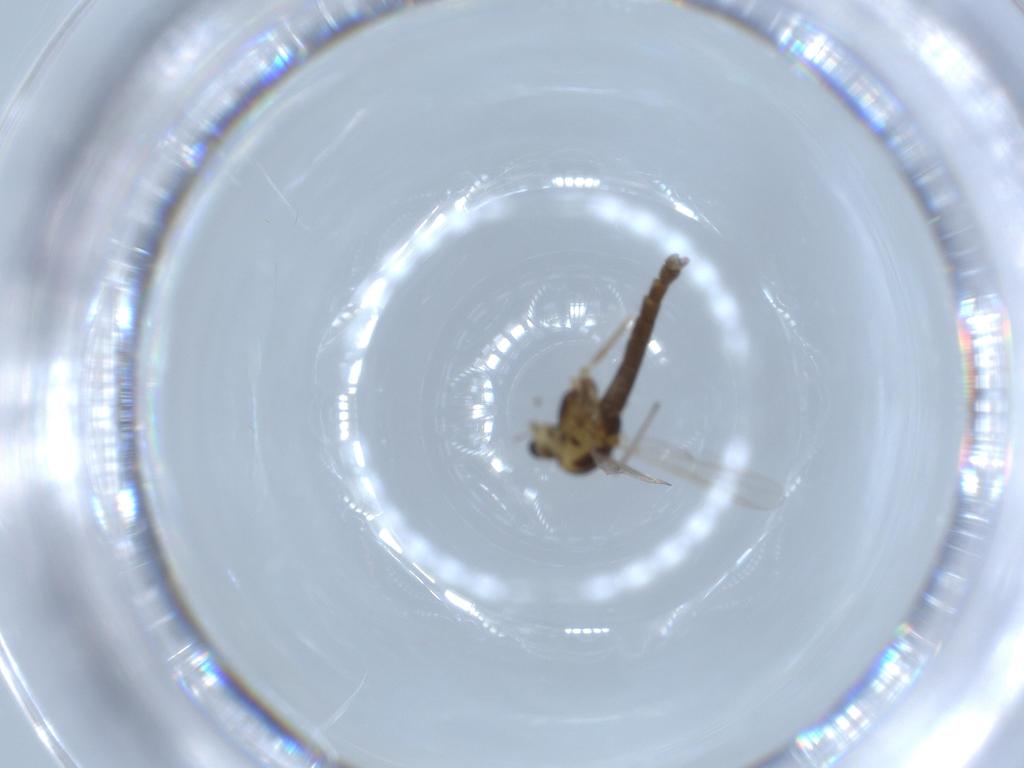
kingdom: Animalia
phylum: Arthropoda
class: Insecta
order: Diptera
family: Chironomidae
